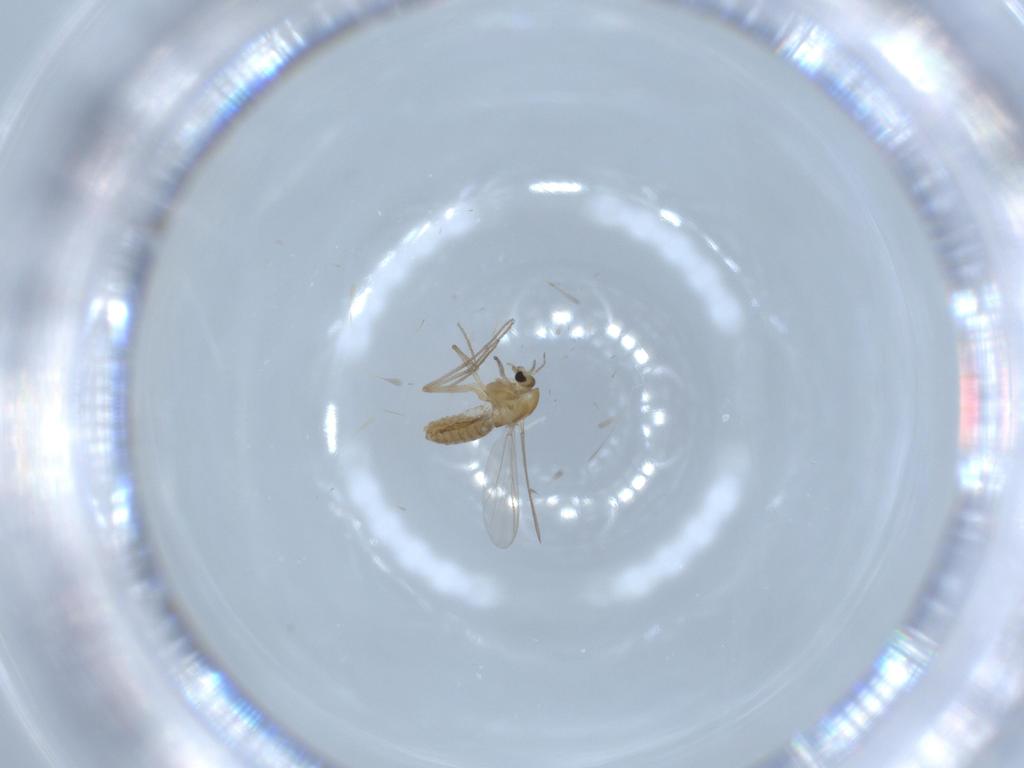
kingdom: Animalia
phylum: Arthropoda
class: Insecta
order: Diptera
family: Chironomidae
